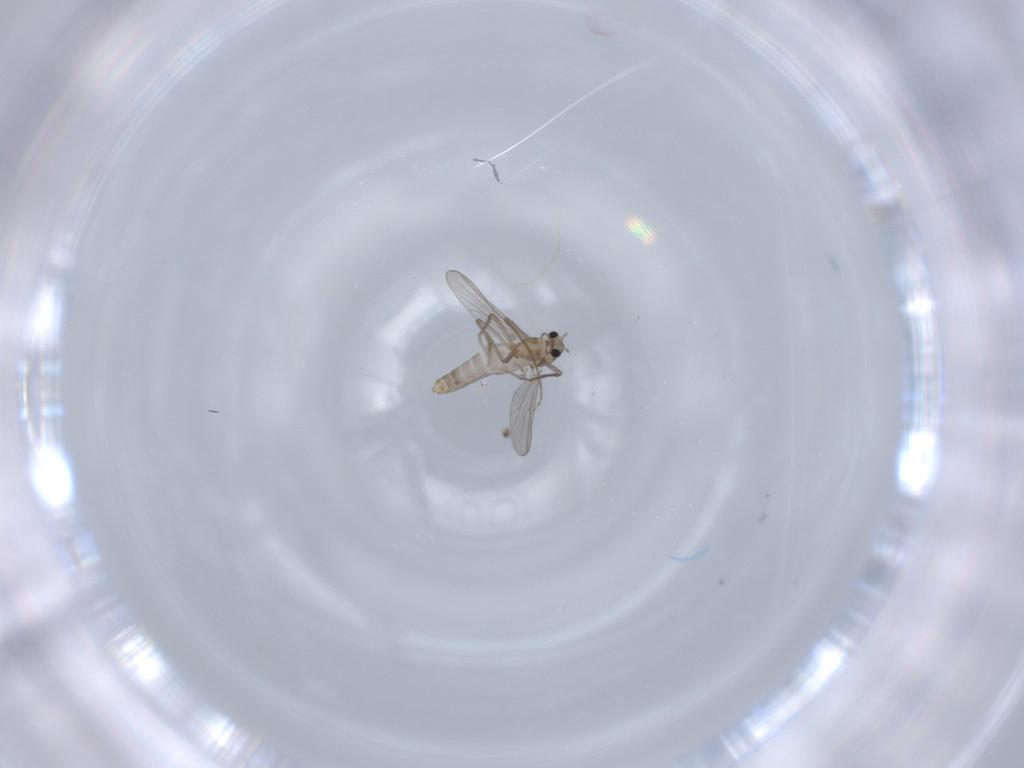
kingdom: Animalia
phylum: Arthropoda
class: Insecta
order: Diptera
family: Chironomidae
